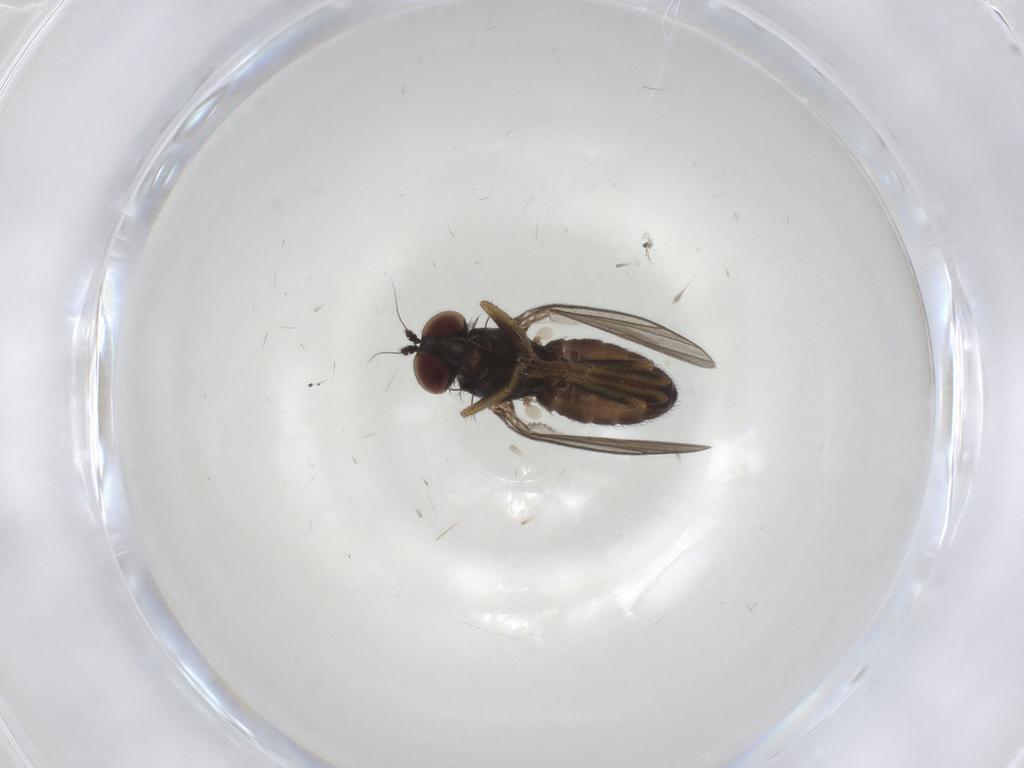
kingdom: Animalia
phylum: Arthropoda
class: Insecta
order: Diptera
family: Dolichopodidae
